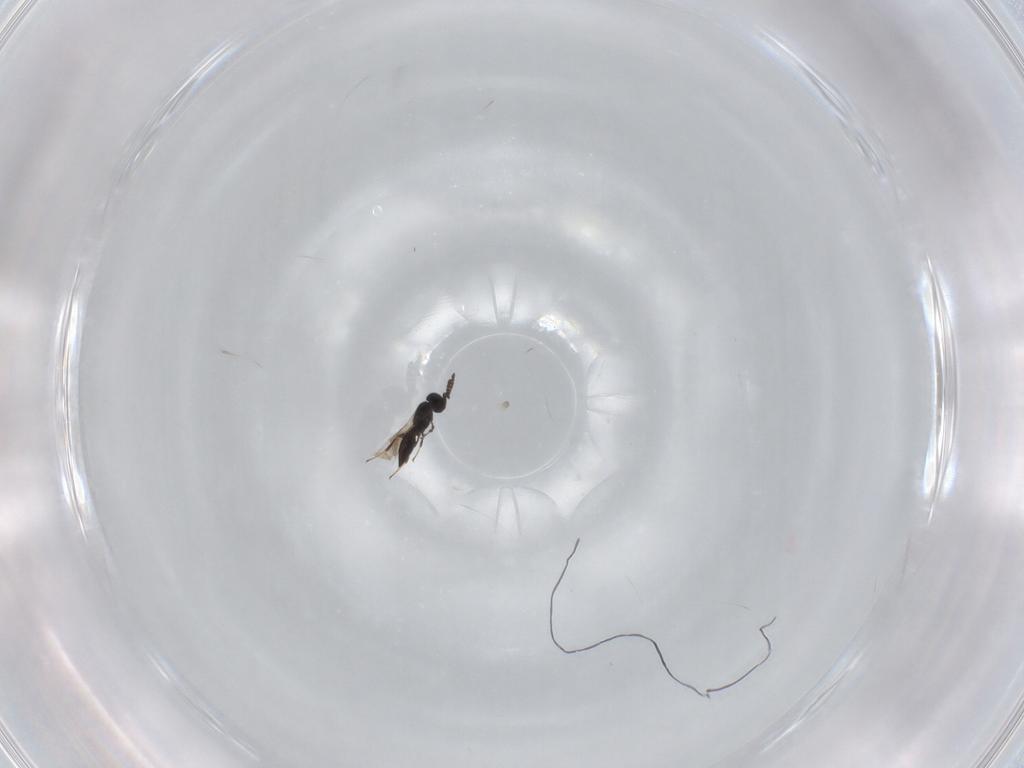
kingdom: Animalia
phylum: Arthropoda
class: Insecta
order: Hymenoptera
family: Scelionidae
